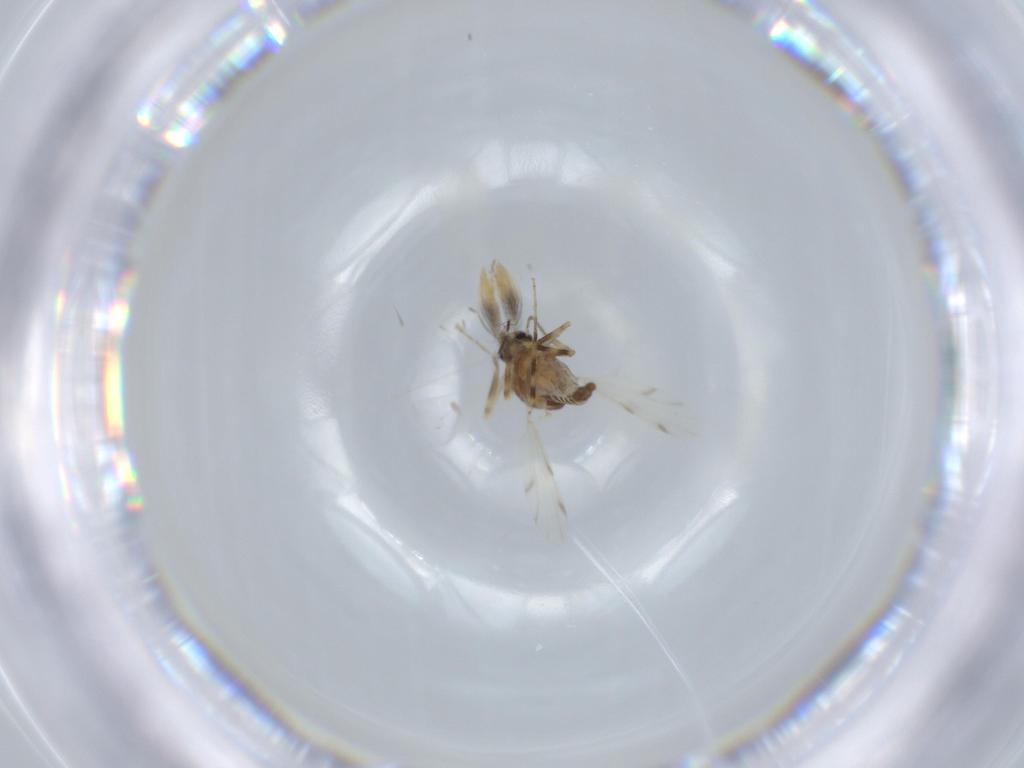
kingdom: Animalia
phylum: Arthropoda
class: Insecta
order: Diptera
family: Ceratopogonidae
